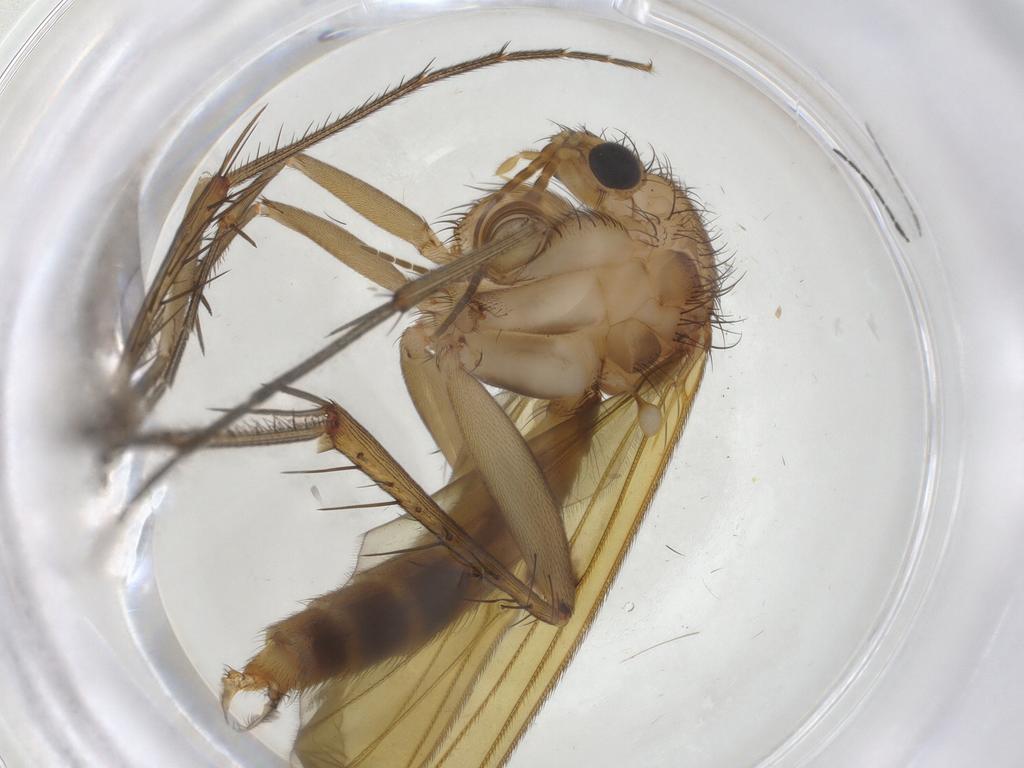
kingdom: Animalia
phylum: Arthropoda
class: Insecta
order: Diptera
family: Mycetophilidae
